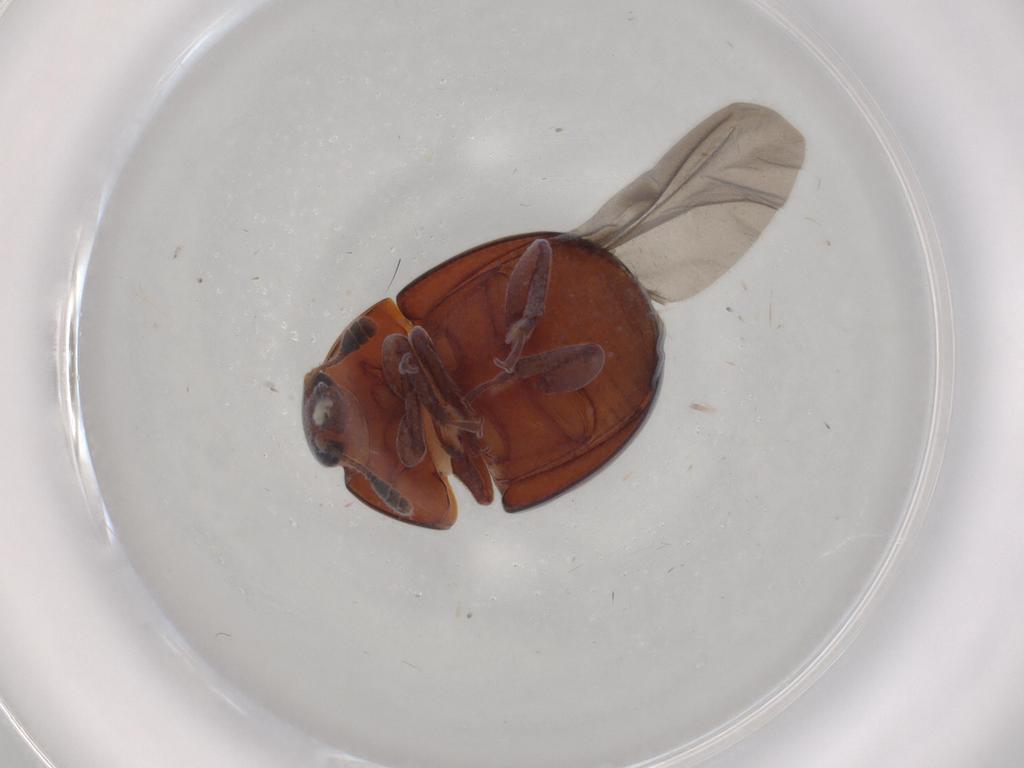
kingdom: Animalia
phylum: Arthropoda
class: Insecta
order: Coleoptera
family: Nitidulidae
